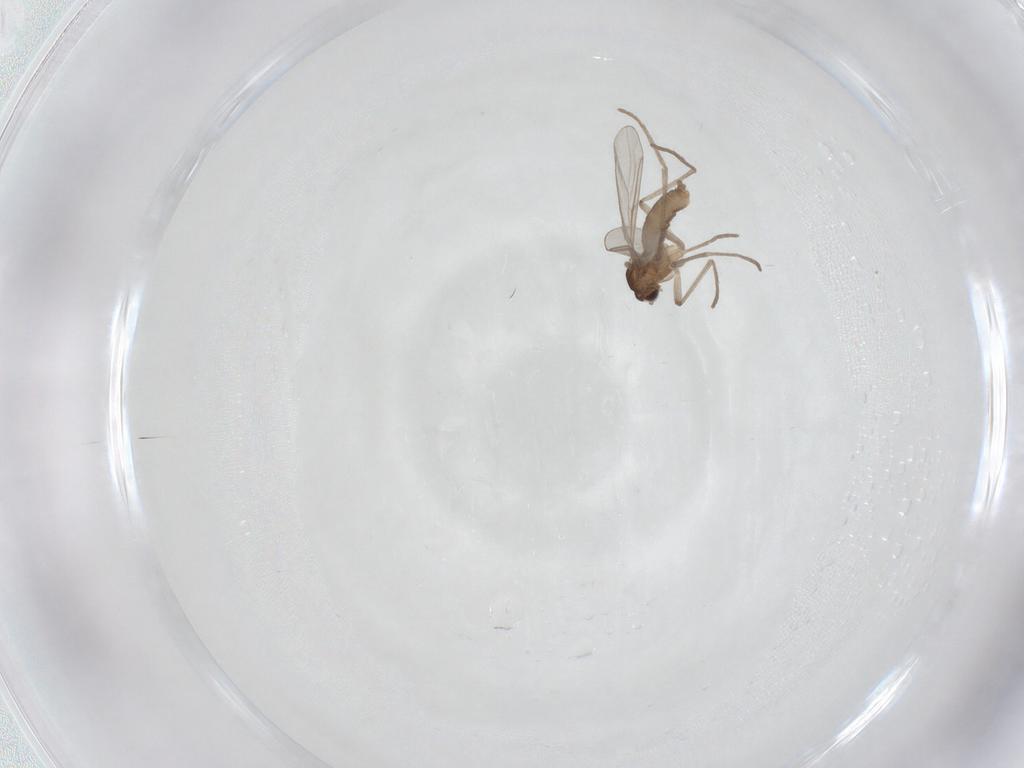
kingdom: Animalia
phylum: Arthropoda
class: Insecta
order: Diptera
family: Cecidomyiidae
